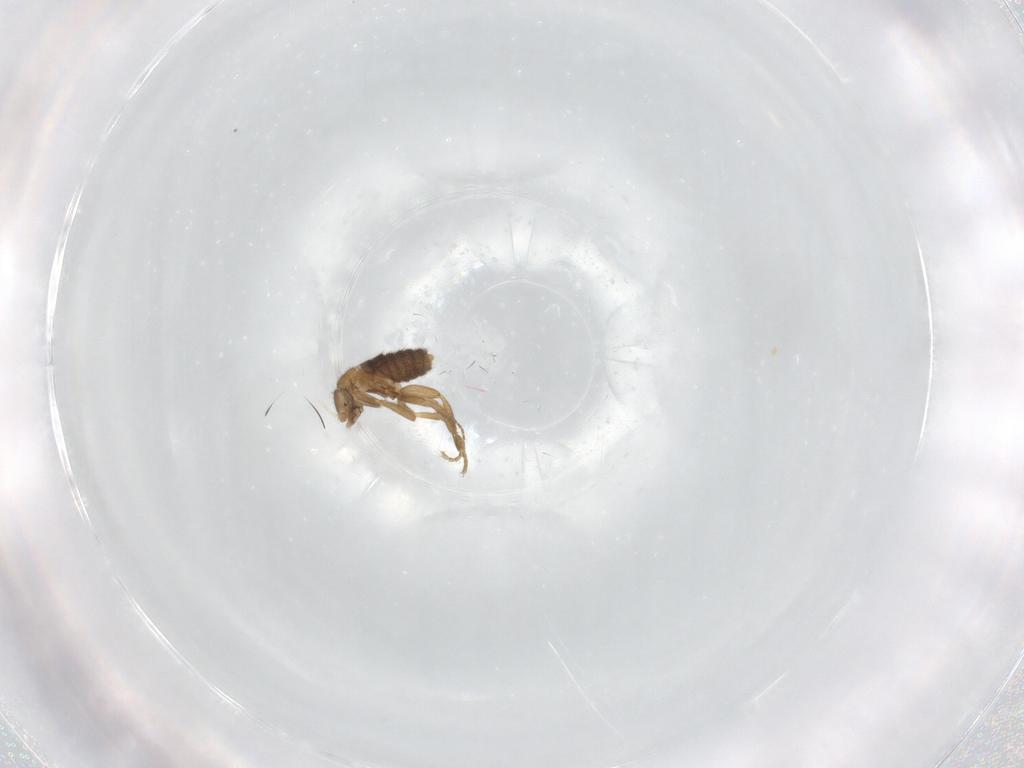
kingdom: Animalia
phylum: Arthropoda
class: Insecta
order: Diptera
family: Phoridae
